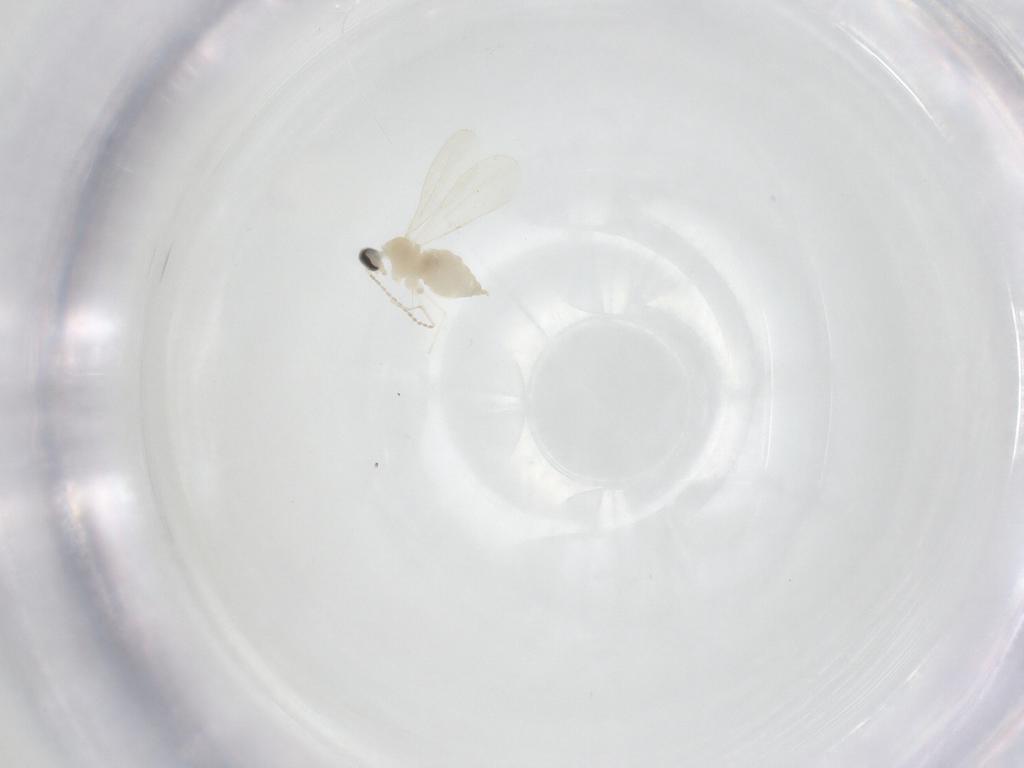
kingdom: Animalia
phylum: Arthropoda
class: Insecta
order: Diptera
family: Cecidomyiidae
